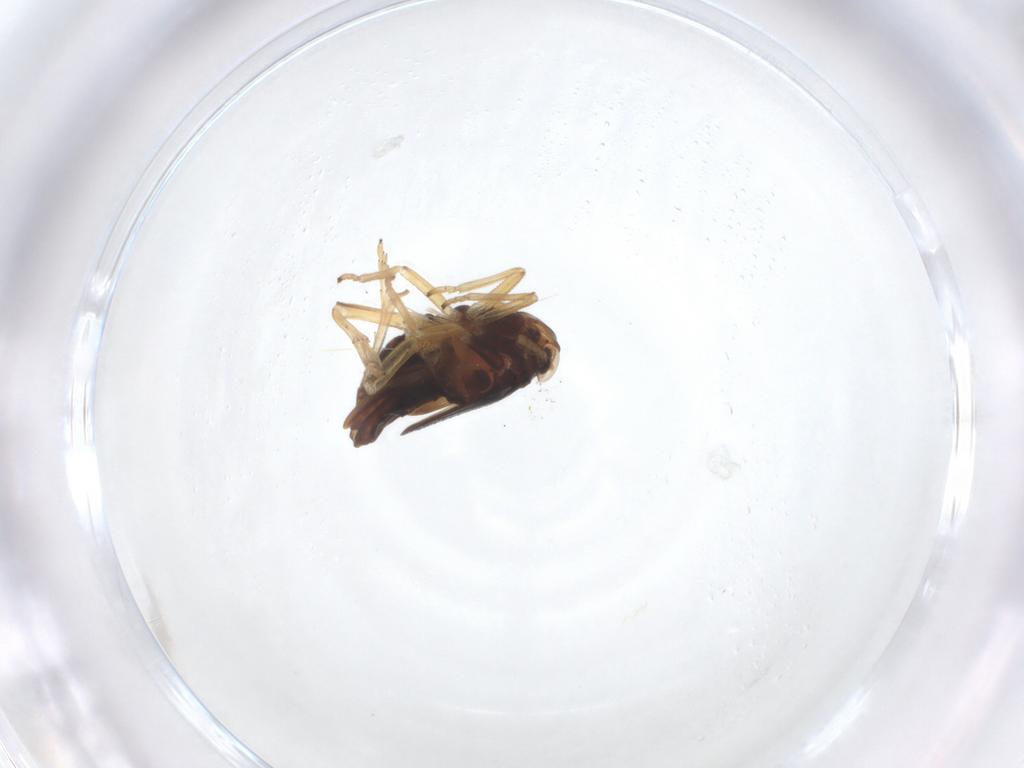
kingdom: Animalia
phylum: Arthropoda
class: Insecta
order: Hemiptera
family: Delphacidae
